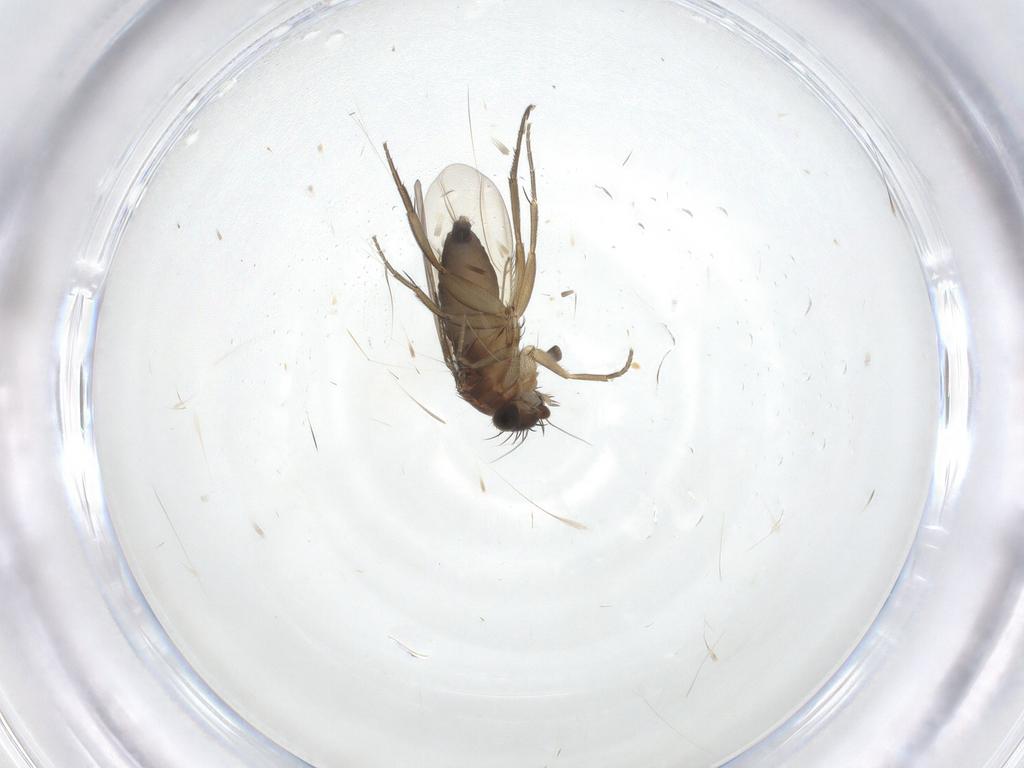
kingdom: Animalia
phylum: Arthropoda
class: Insecta
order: Diptera
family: Phoridae
